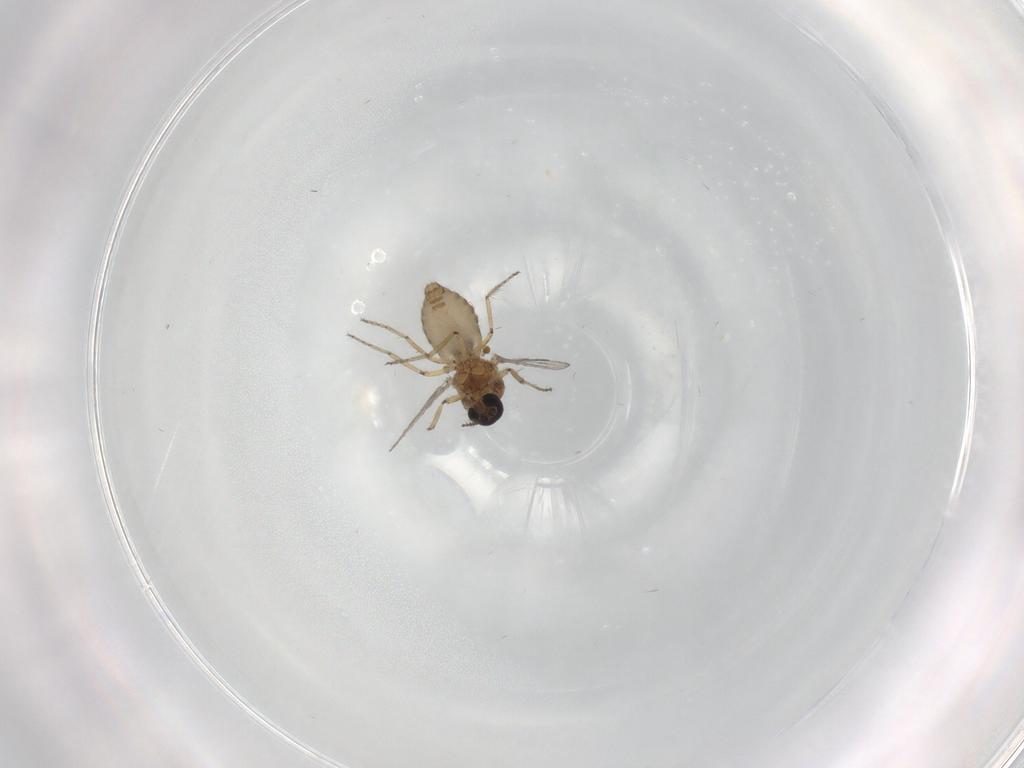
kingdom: Animalia
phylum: Arthropoda
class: Insecta
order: Diptera
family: Ceratopogonidae
